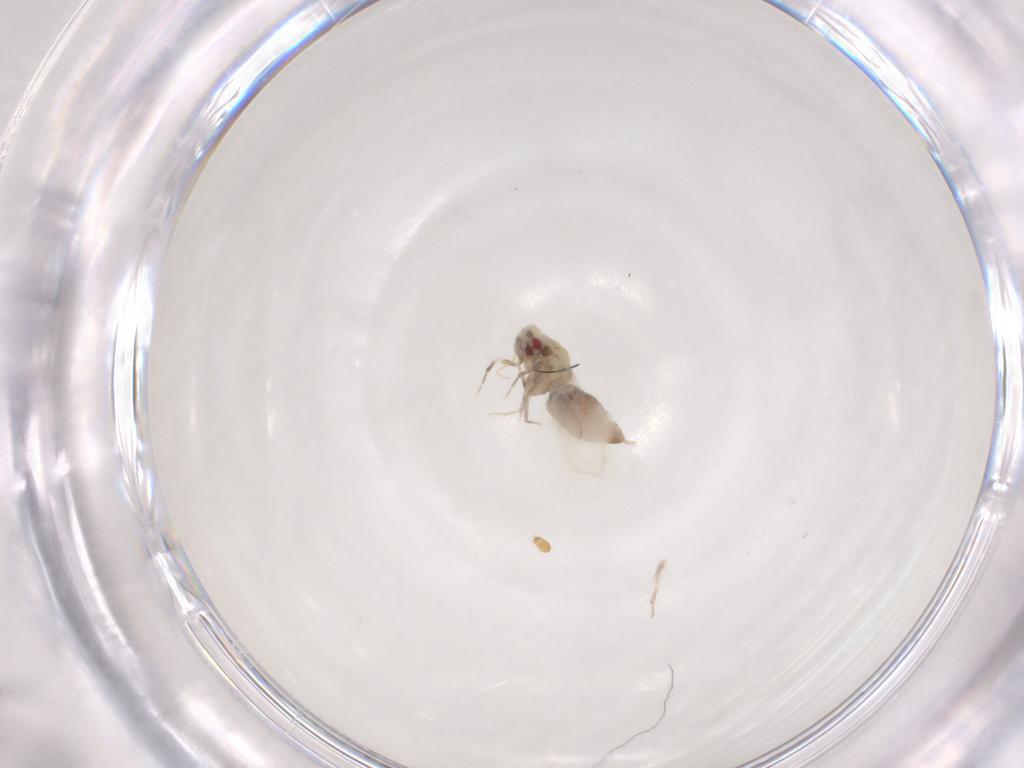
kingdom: Animalia
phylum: Arthropoda
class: Insecta
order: Hemiptera
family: Aleyrodidae
